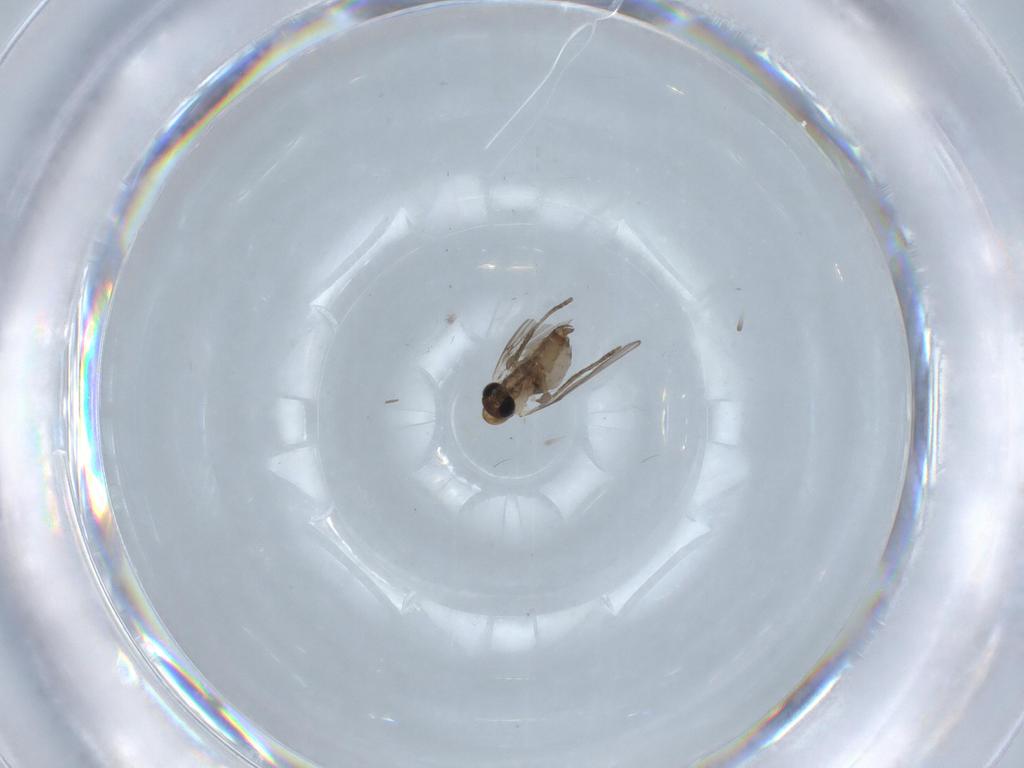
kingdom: Animalia
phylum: Arthropoda
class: Insecta
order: Diptera
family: Psychodidae
